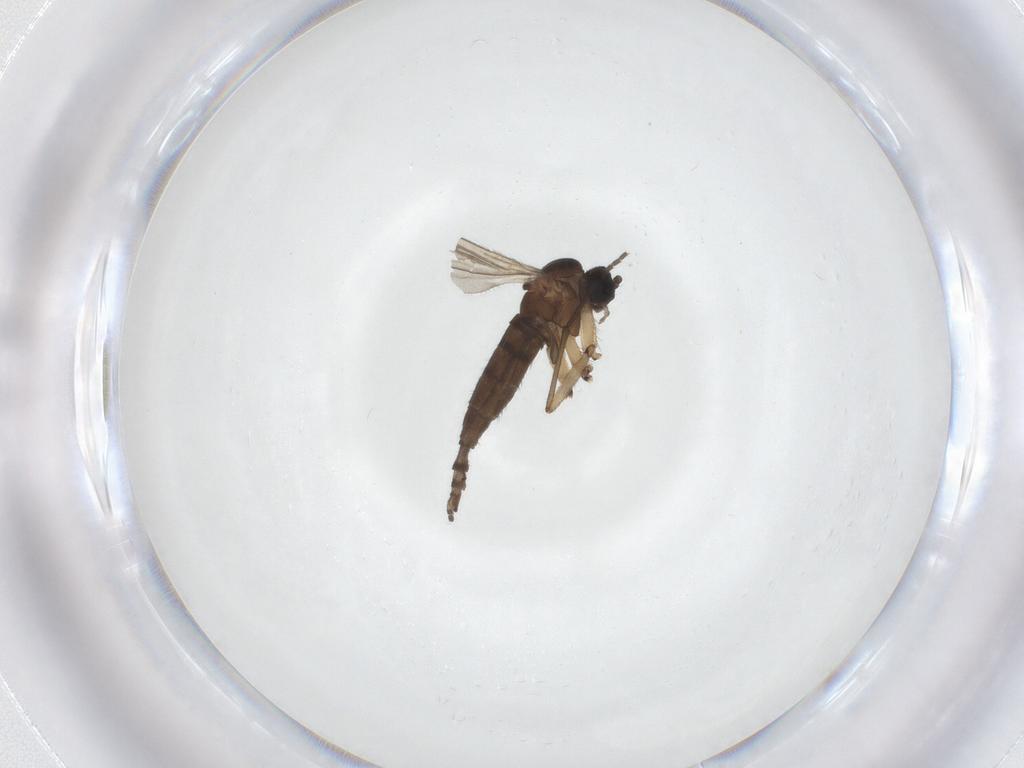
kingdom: Animalia
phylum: Arthropoda
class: Insecta
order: Diptera
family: Sciaridae
